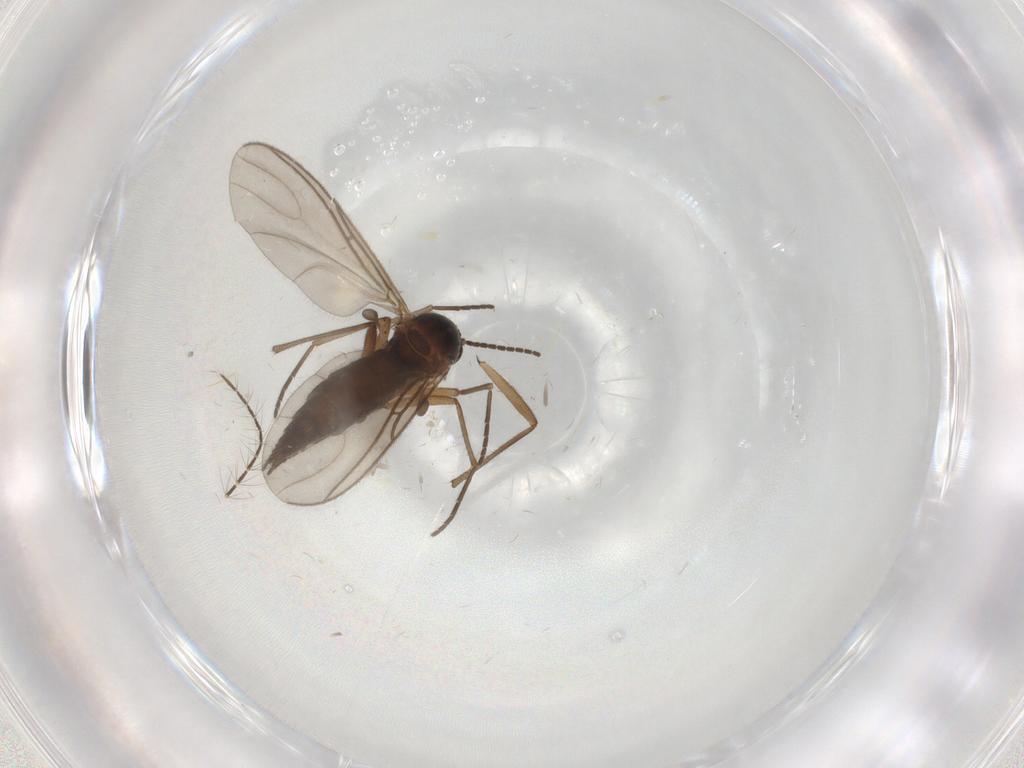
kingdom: Animalia
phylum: Arthropoda
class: Insecta
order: Diptera
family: Sciaridae
